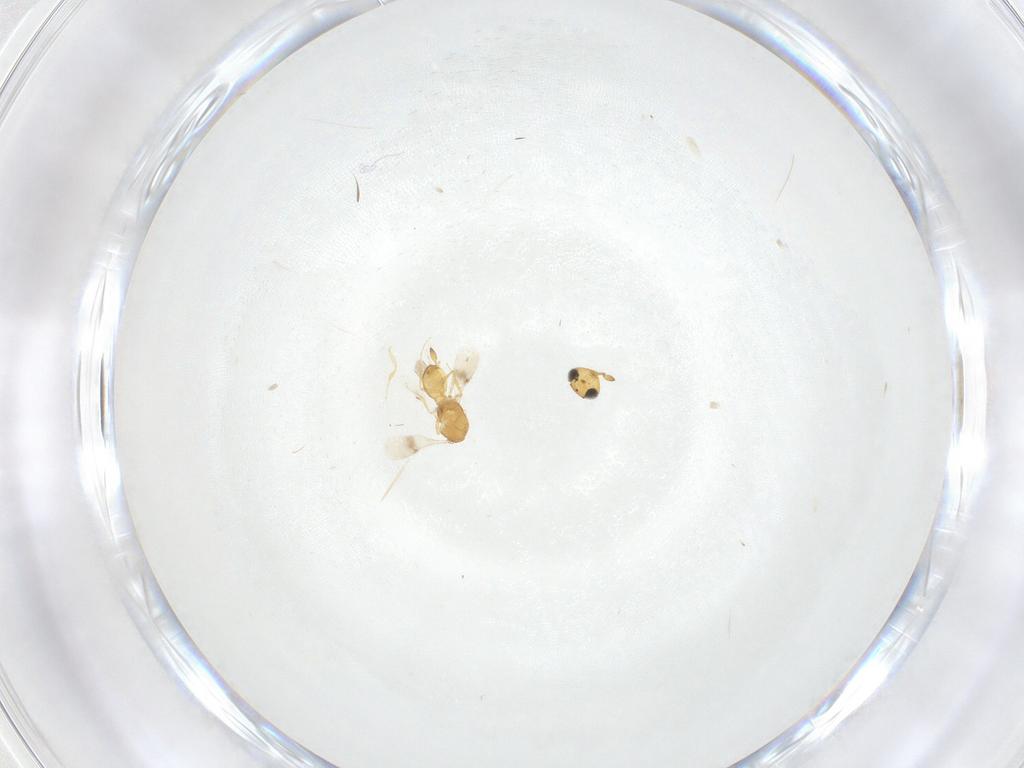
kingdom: Animalia
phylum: Arthropoda
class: Insecta
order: Hymenoptera
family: Scelionidae
